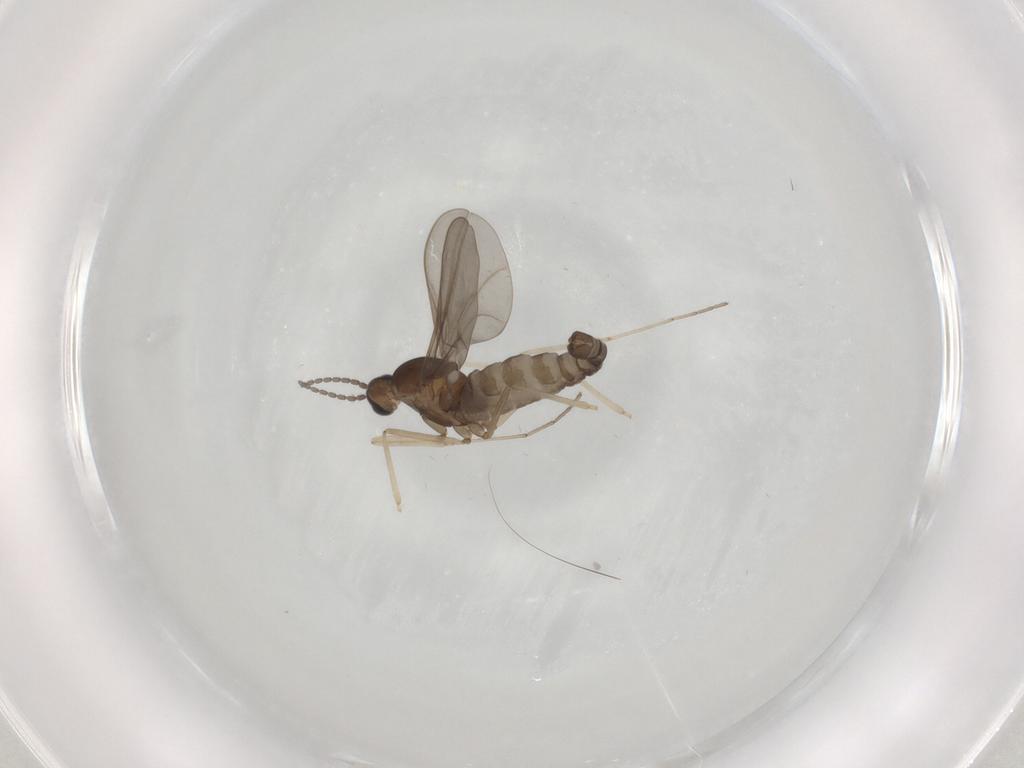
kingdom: Animalia
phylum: Arthropoda
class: Insecta
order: Diptera
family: Cecidomyiidae
